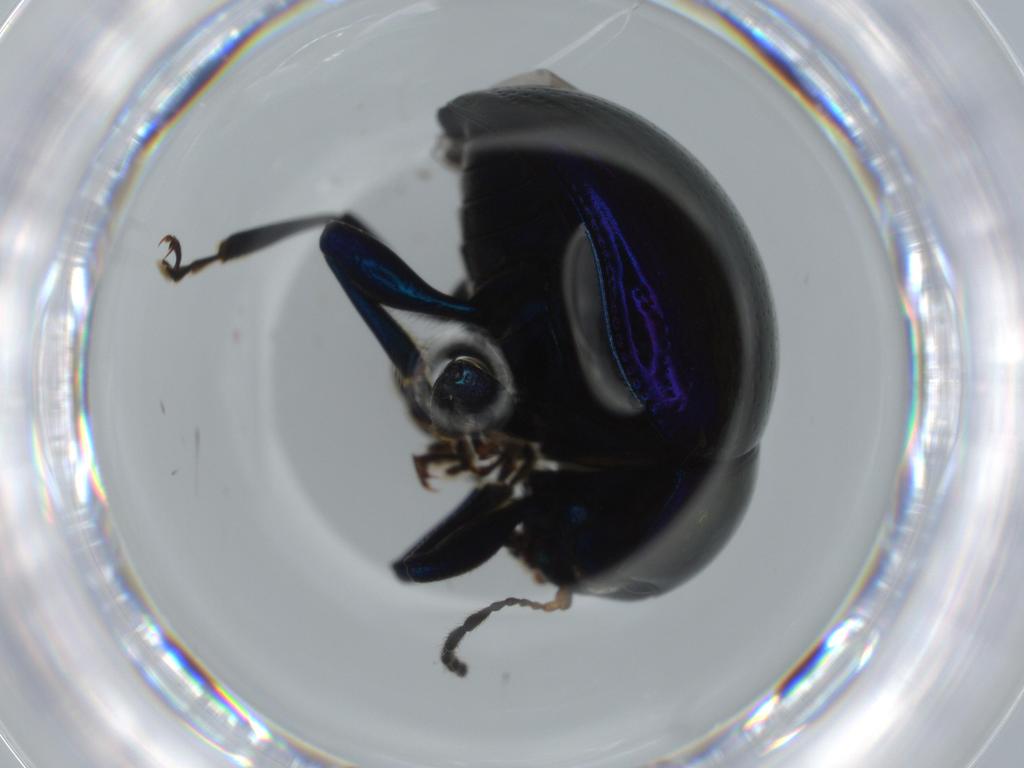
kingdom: Animalia
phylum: Arthropoda
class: Insecta
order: Coleoptera
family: Chrysomelidae
